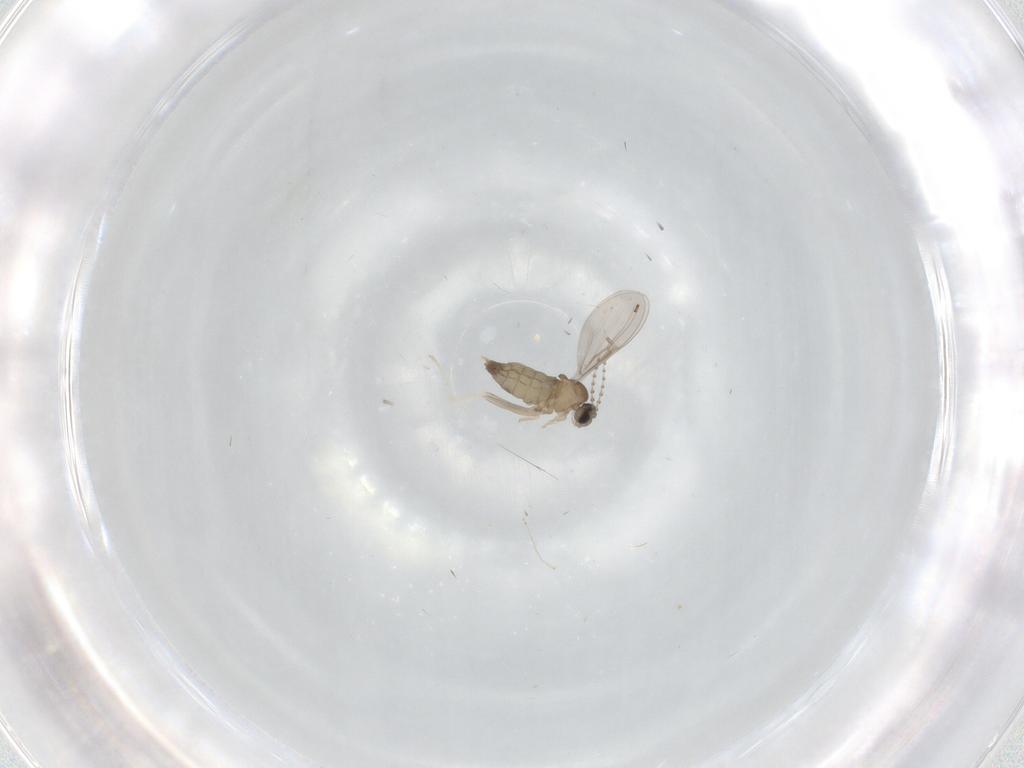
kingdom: Animalia
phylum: Arthropoda
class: Insecta
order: Diptera
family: Cecidomyiidae
